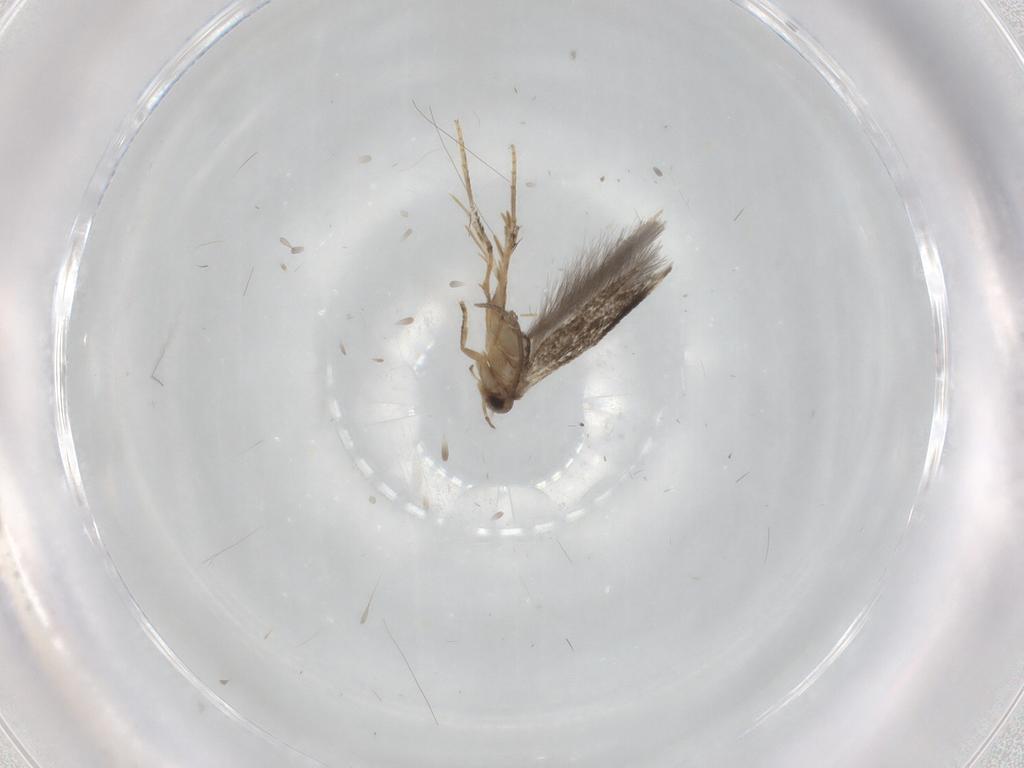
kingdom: Animalia
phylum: Arthropoda
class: Insecta
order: Lepidoptera
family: Elachistidae
